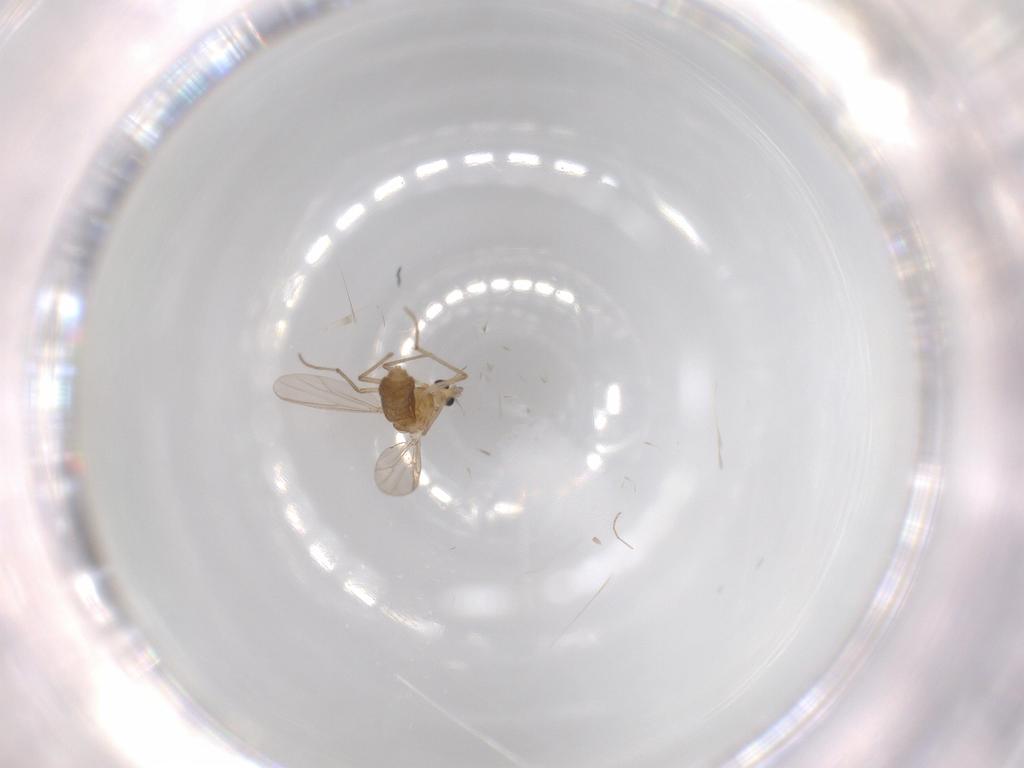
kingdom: Animalia
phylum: Arthropoda
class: Insecta
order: Diptera
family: Chironomidae
